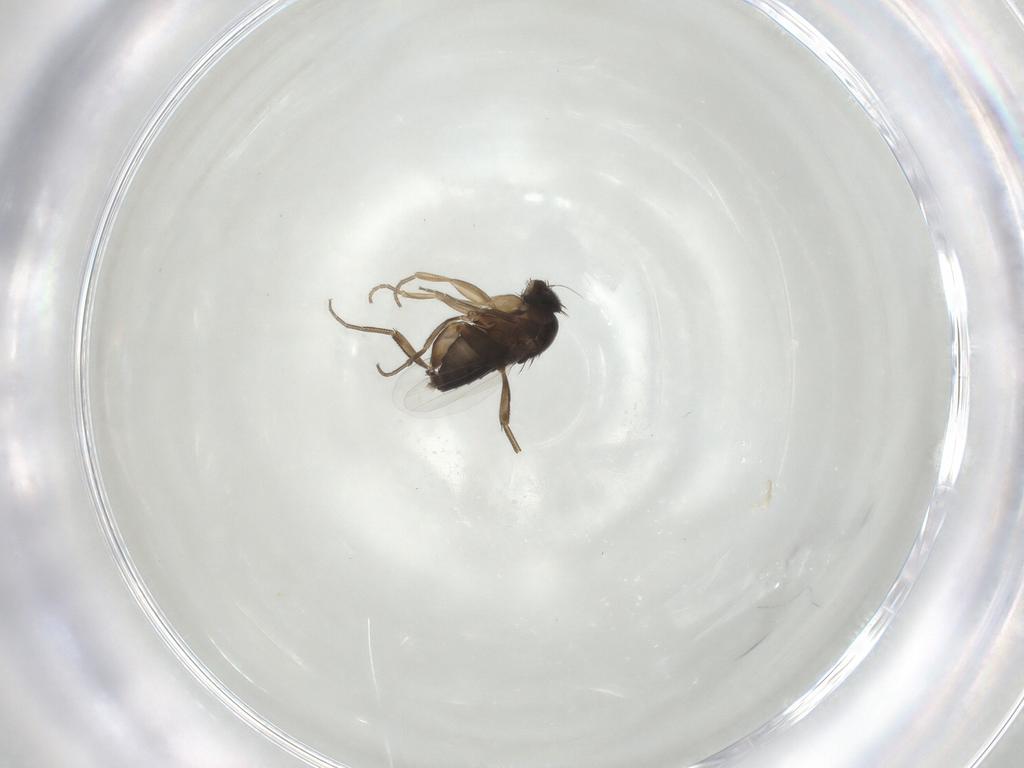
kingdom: Animalia
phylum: Arthropoda
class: Insecta
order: Diptera
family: Phoridae
